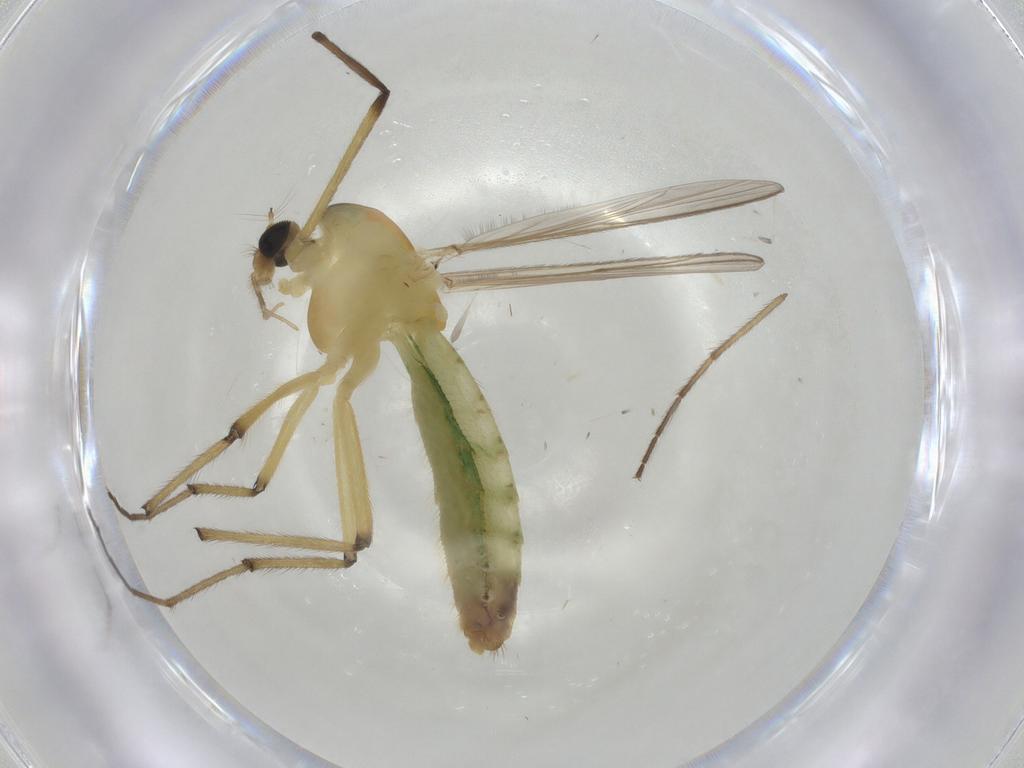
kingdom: Animalia
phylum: Arthropoda
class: Insecta
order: Diptera
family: Chironomidae
